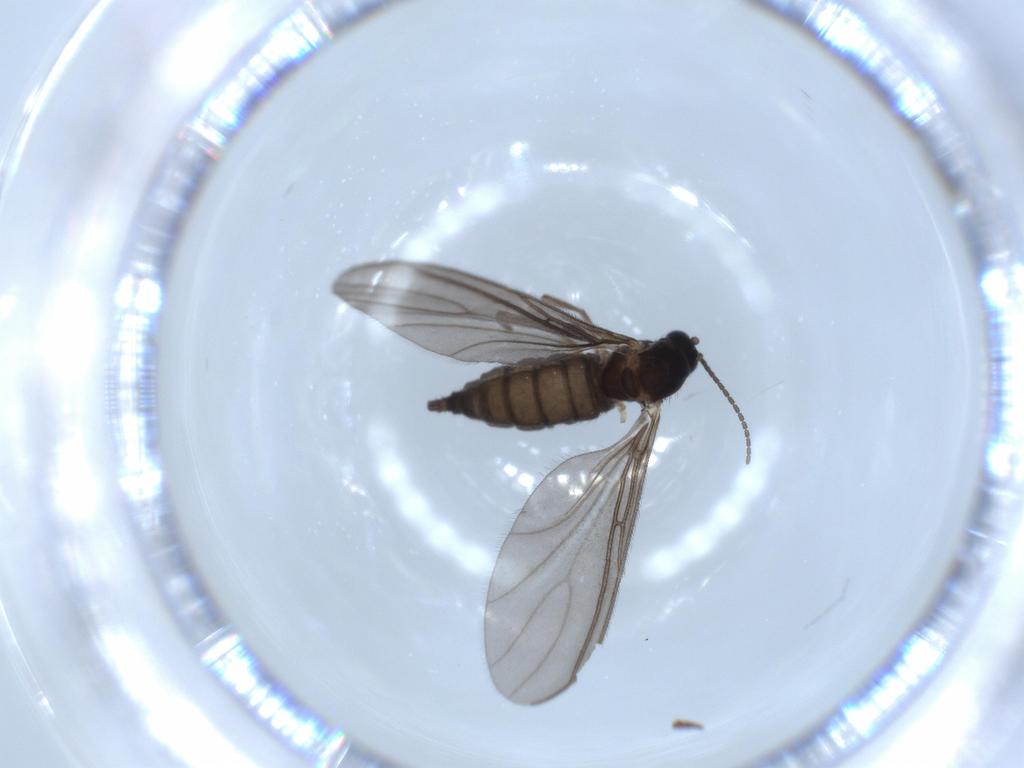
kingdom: Animalia
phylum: Arthropoda
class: Insecta
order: Diptera
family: Sciaridae
